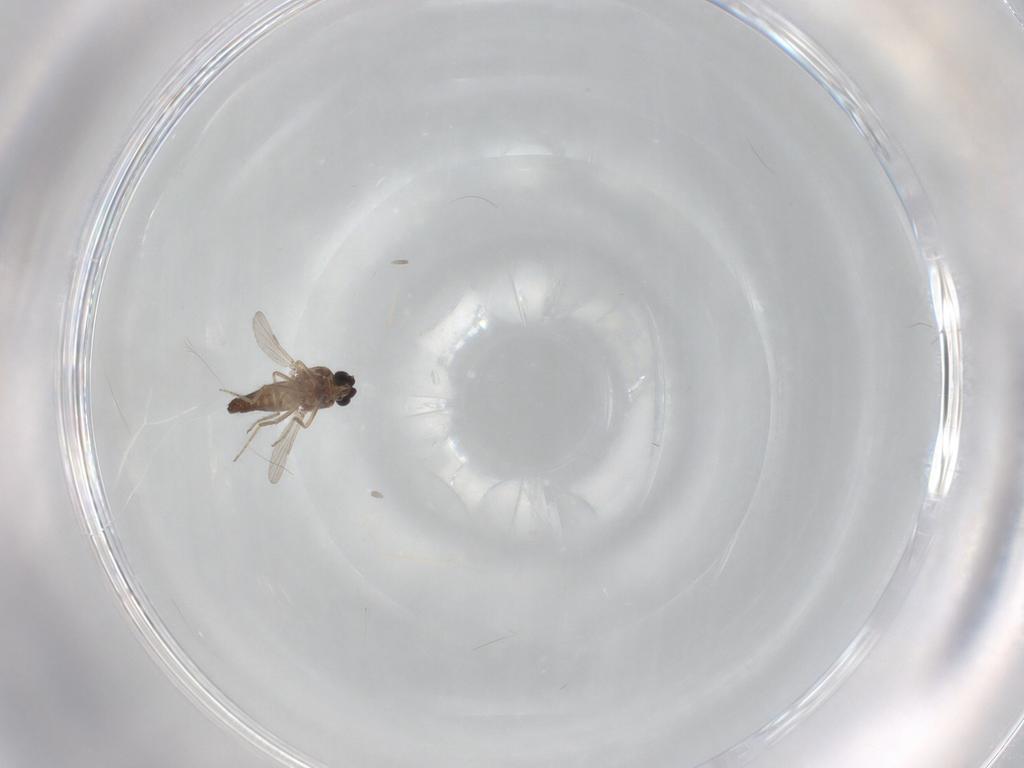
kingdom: Animalia
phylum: Arthropoda
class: Insecta
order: Diptera
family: Ceratopogonidae
